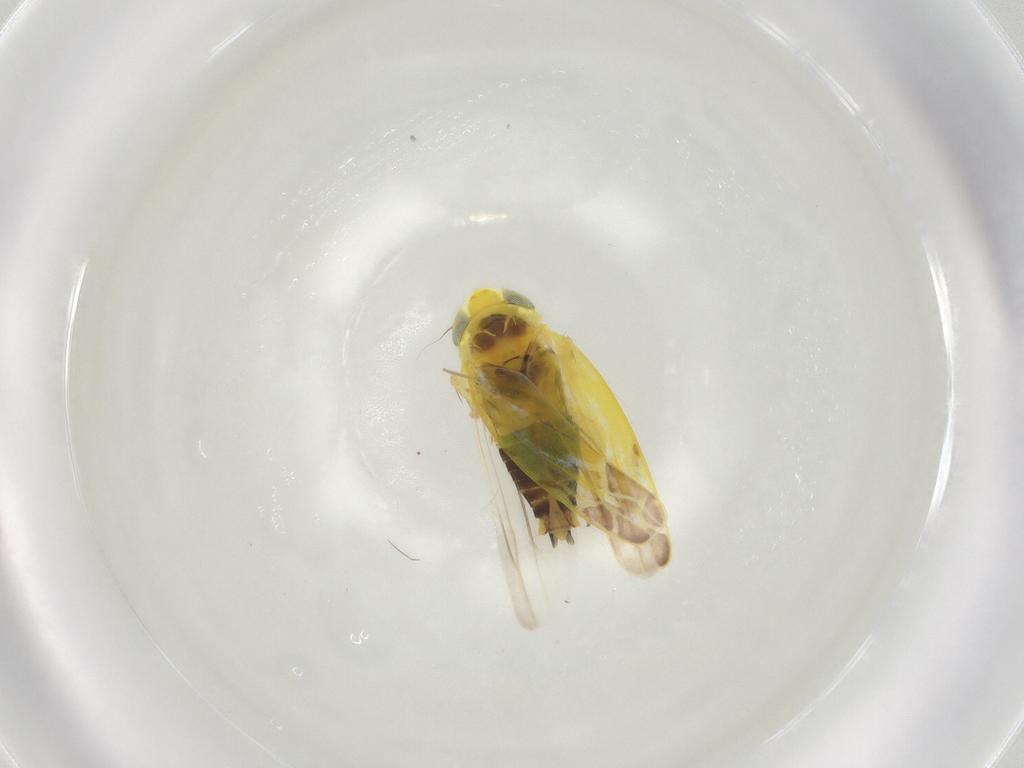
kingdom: Animalia
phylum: Arthropoda
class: Insecta
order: Hemiptera
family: Cicadellidae
